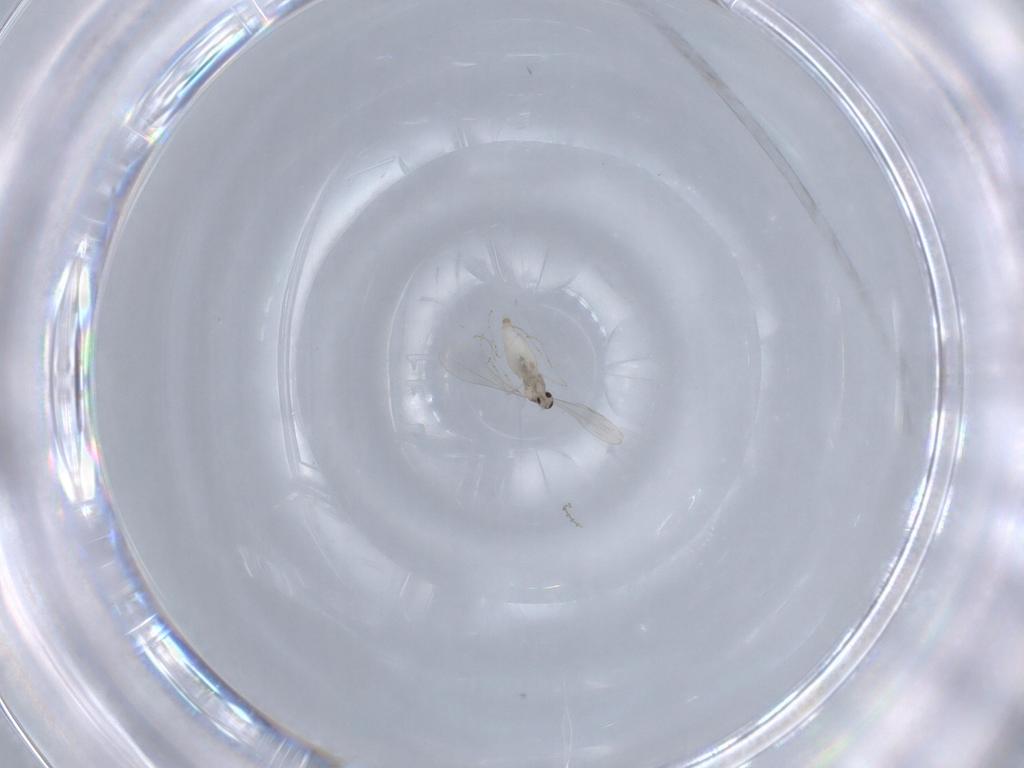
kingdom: Animalia
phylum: Arthropoda
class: Insecta
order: Diptera
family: Cecidomyiidae
